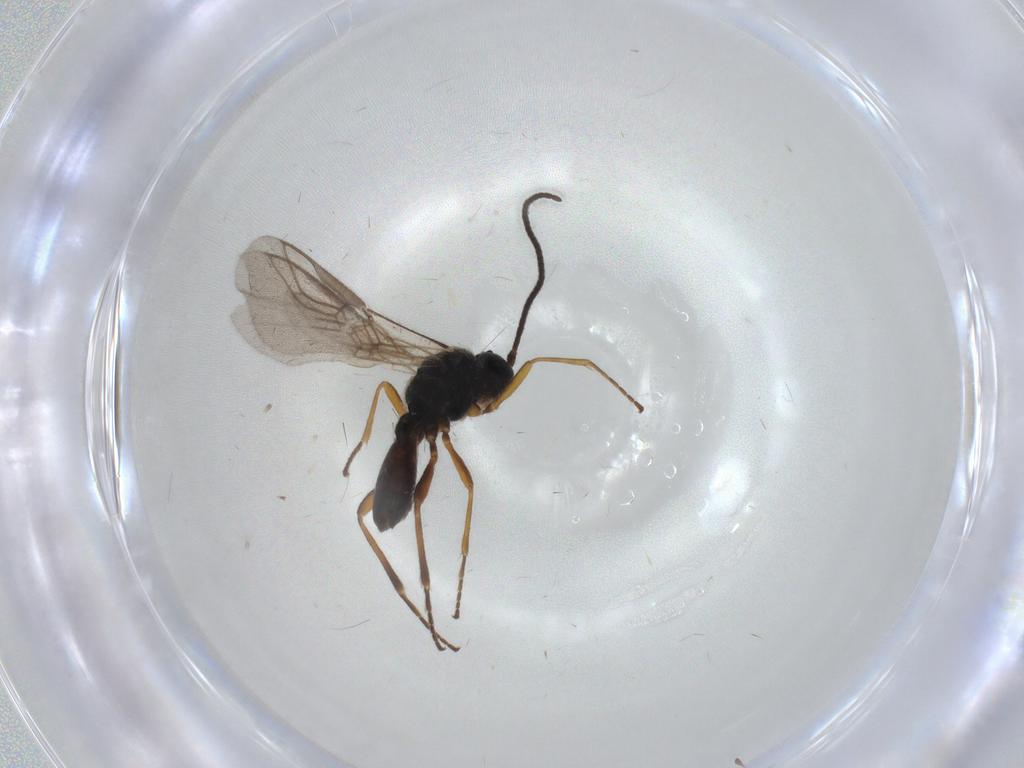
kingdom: Animalia
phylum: Arthropoda
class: Insecta
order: Hymenoptera
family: Braconidae
